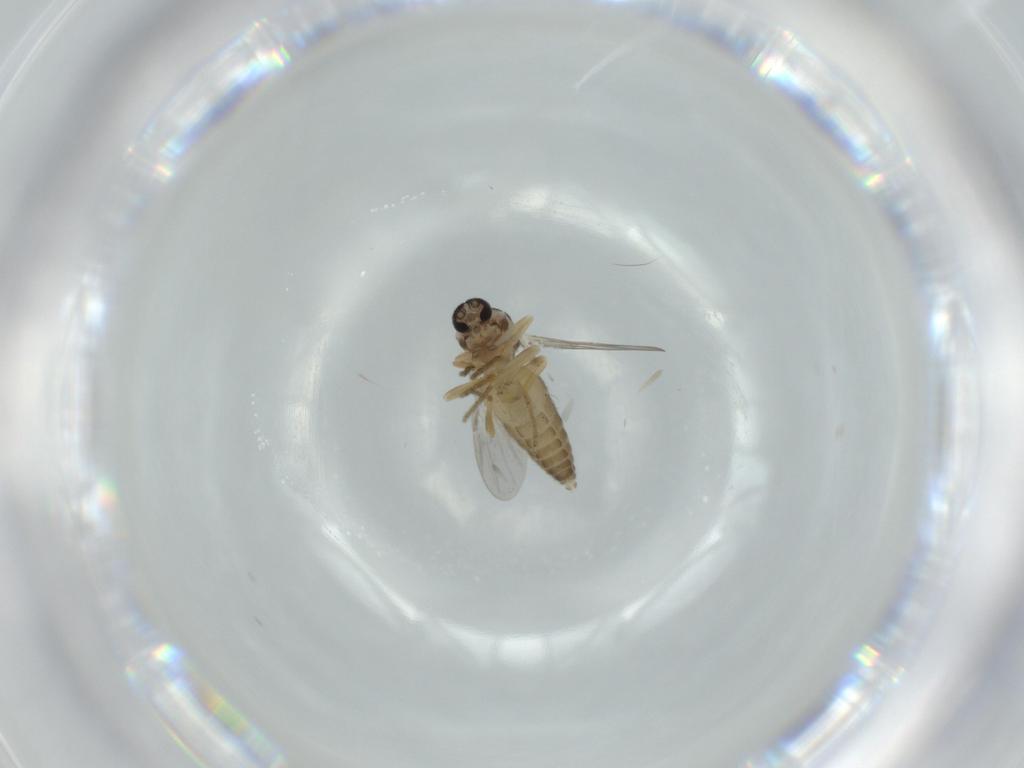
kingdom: Animalia
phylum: Arthropoda
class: Insecta
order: Diptera
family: Ceratopogonidae
